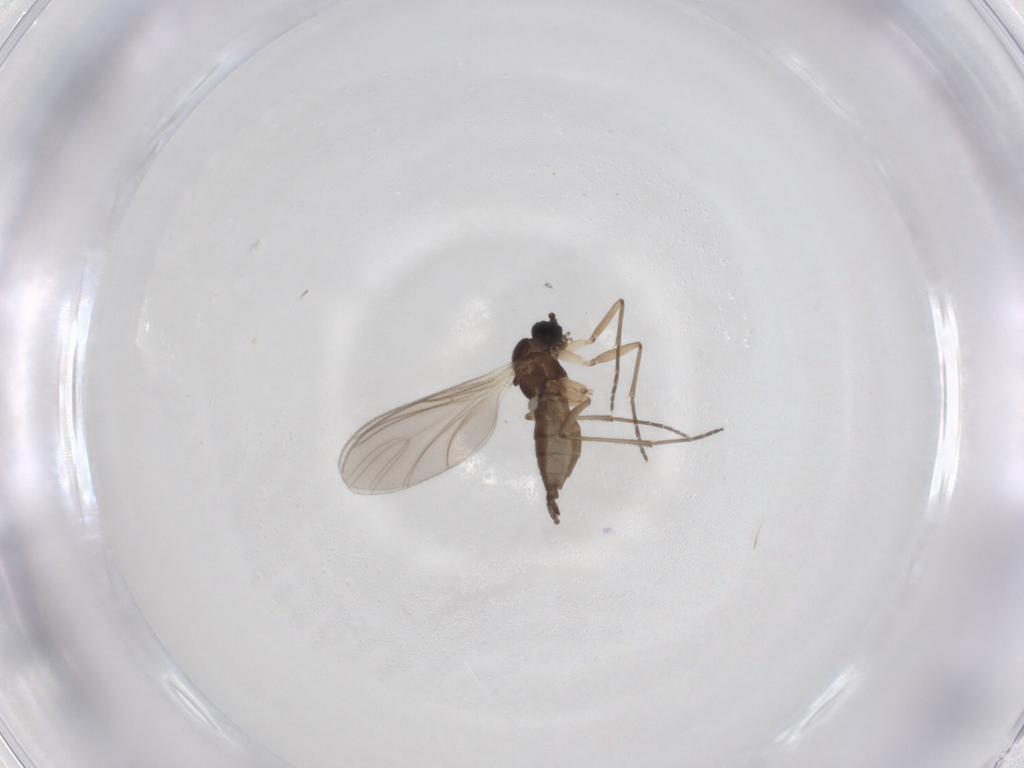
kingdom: Animalia
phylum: Arthropoda
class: Insecta
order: Diptera
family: Sciaridae
